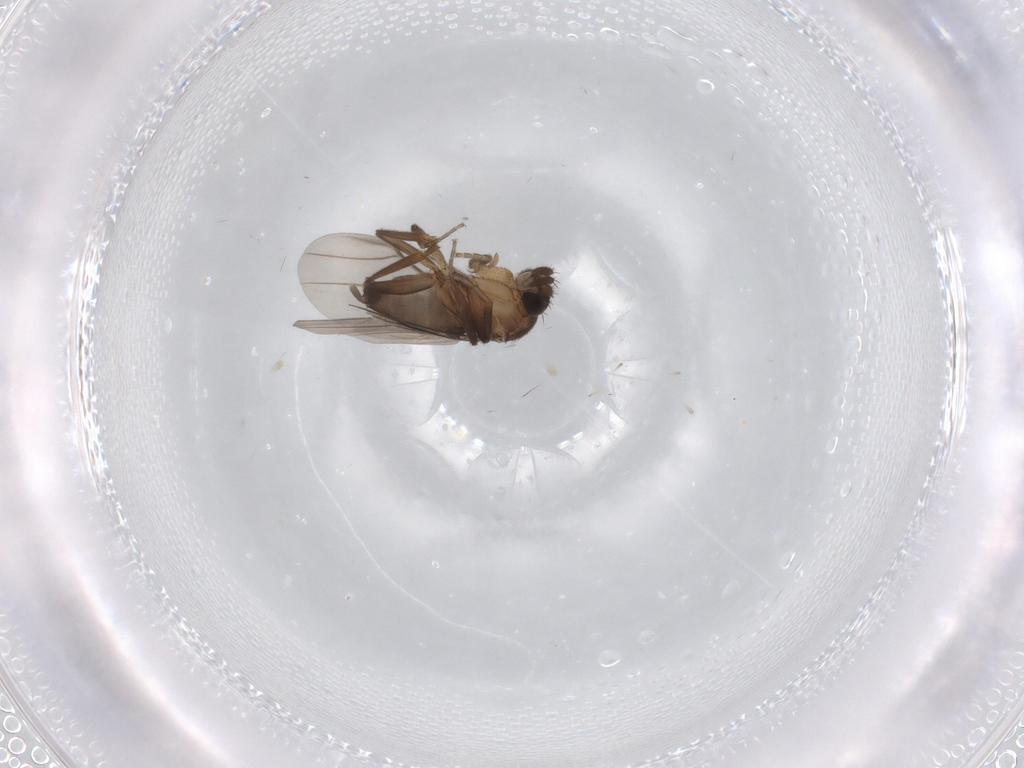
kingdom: Animalia
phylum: Arthropoda
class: Insecta
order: Diptera
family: Phoridae
